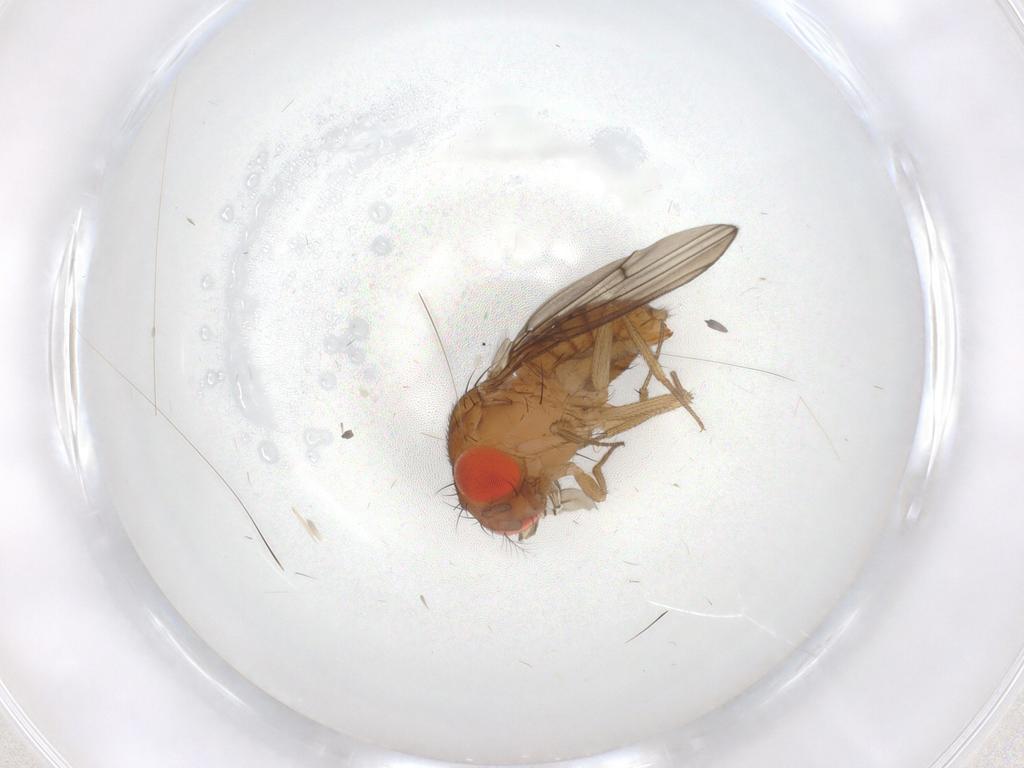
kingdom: Animalia
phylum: Arthropoda
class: Insecta
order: Diptera
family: Drosophilidae
